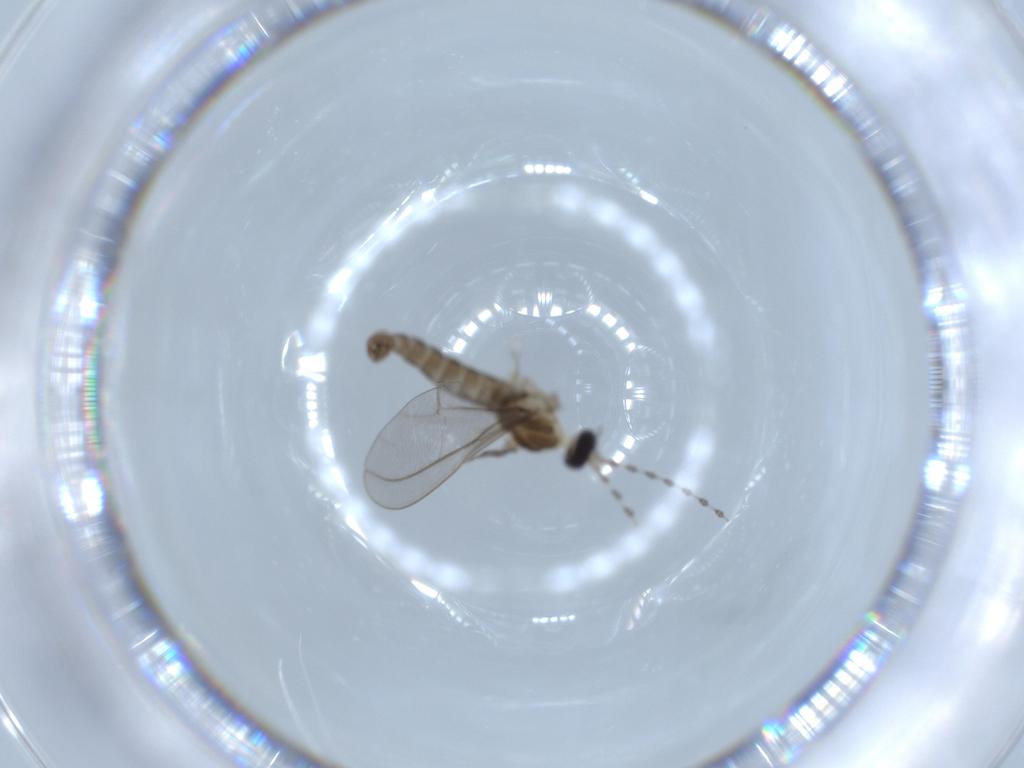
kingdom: Animalia
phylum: Arthropoda
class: Insecta
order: Diptera
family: Cecidomyiidae
